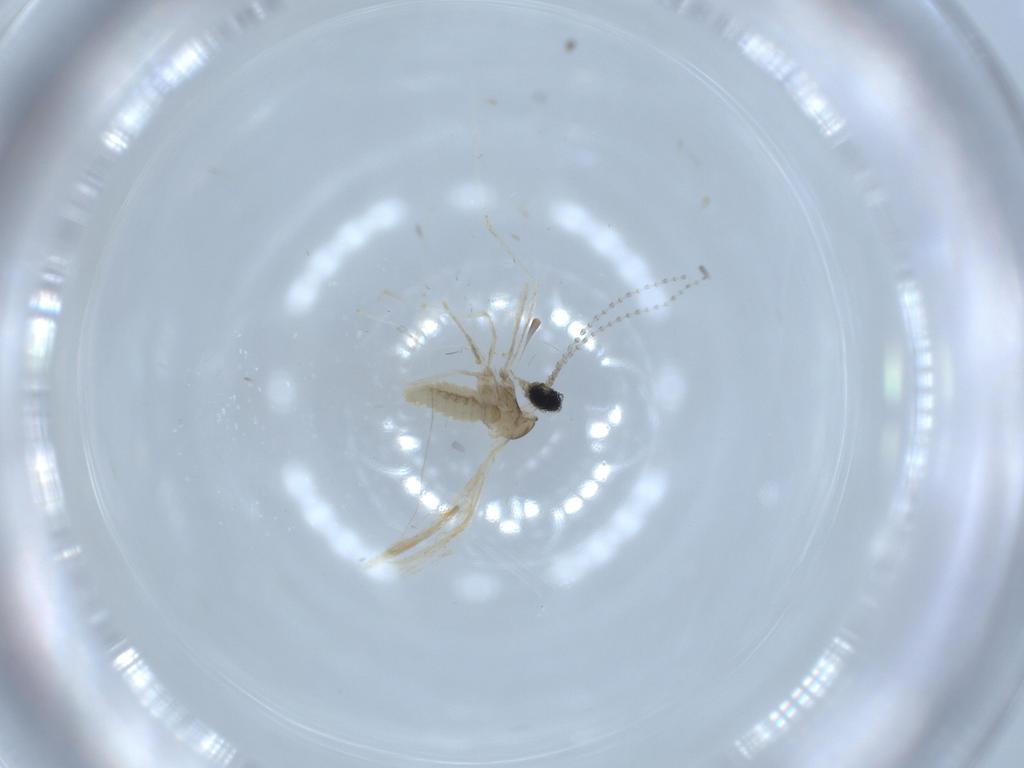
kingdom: Animalia
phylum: Arthropoda
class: Insecta
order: Diptera
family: Cecidomyiidae
